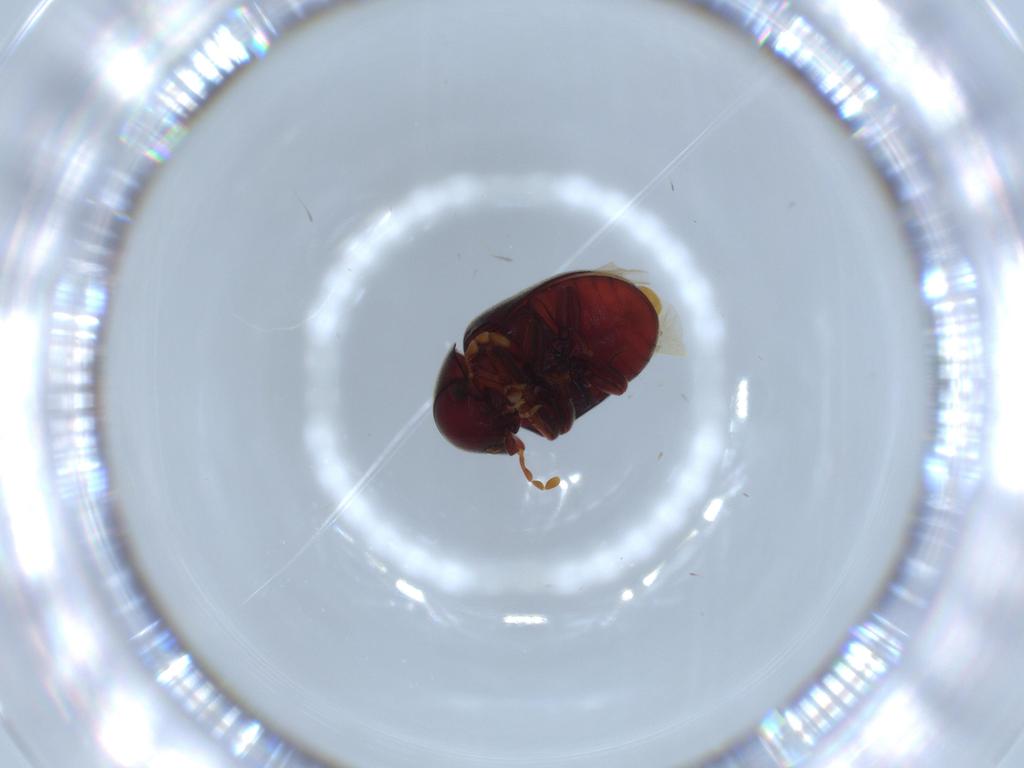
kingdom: Animalia
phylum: Arthropoda
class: Insecta
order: Coleoptera
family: Ptinidae
